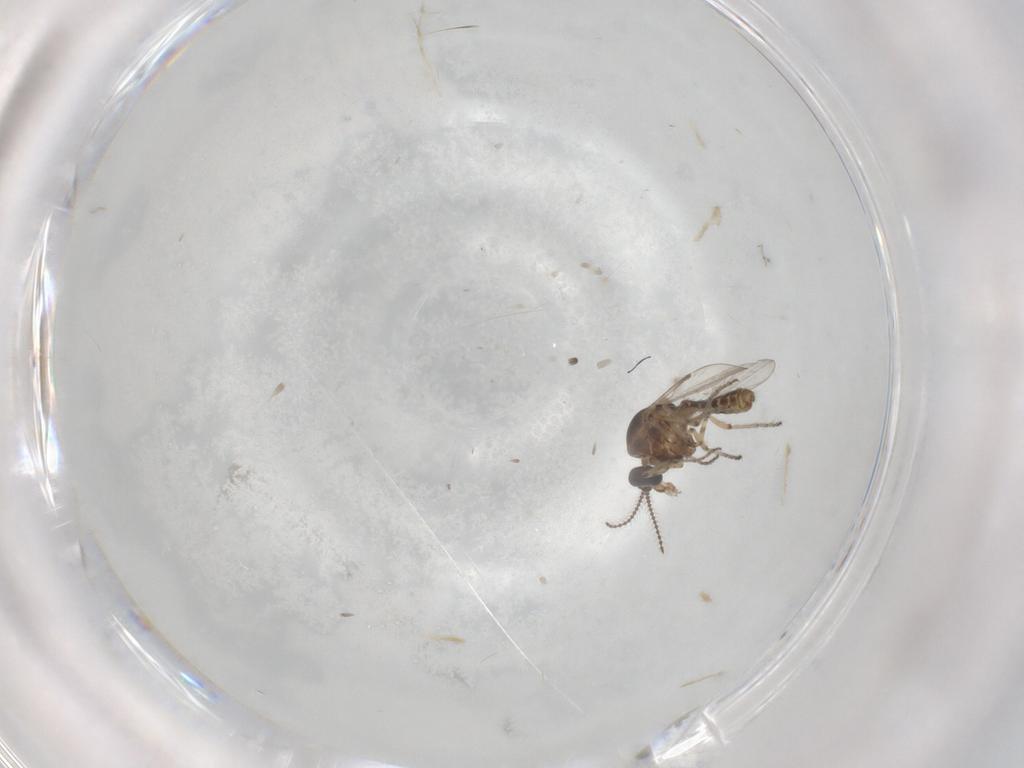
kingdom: Animalia
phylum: Arthropoda
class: Insecta
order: Diptera
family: Ceratopogonidae
